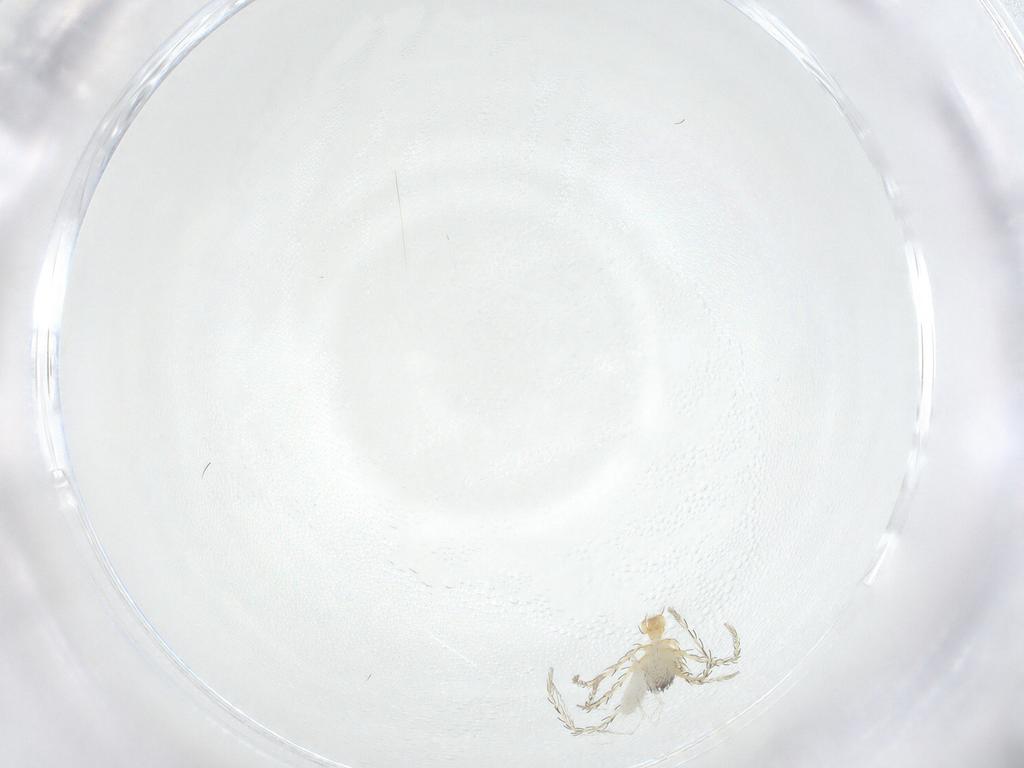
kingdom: Animalia
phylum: Arthropoda
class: Arachnida
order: Trombidiformes
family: Smarididae
